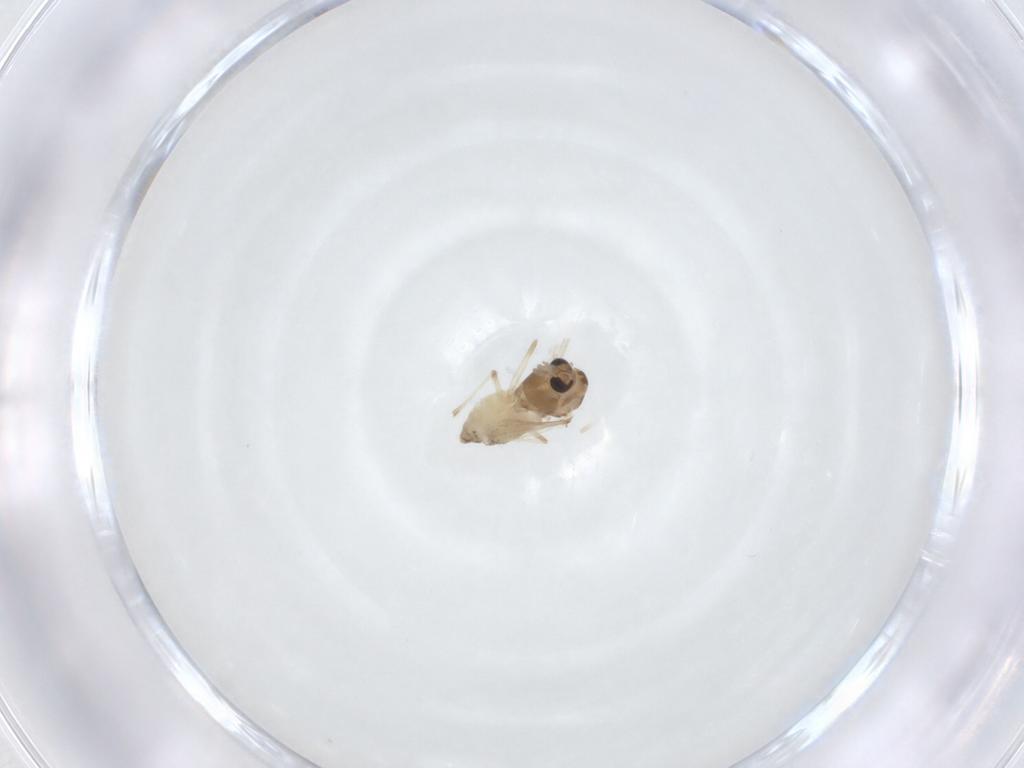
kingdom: Animalia
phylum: Arthropoda
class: Insecta
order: Diptera
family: Chironomidae
